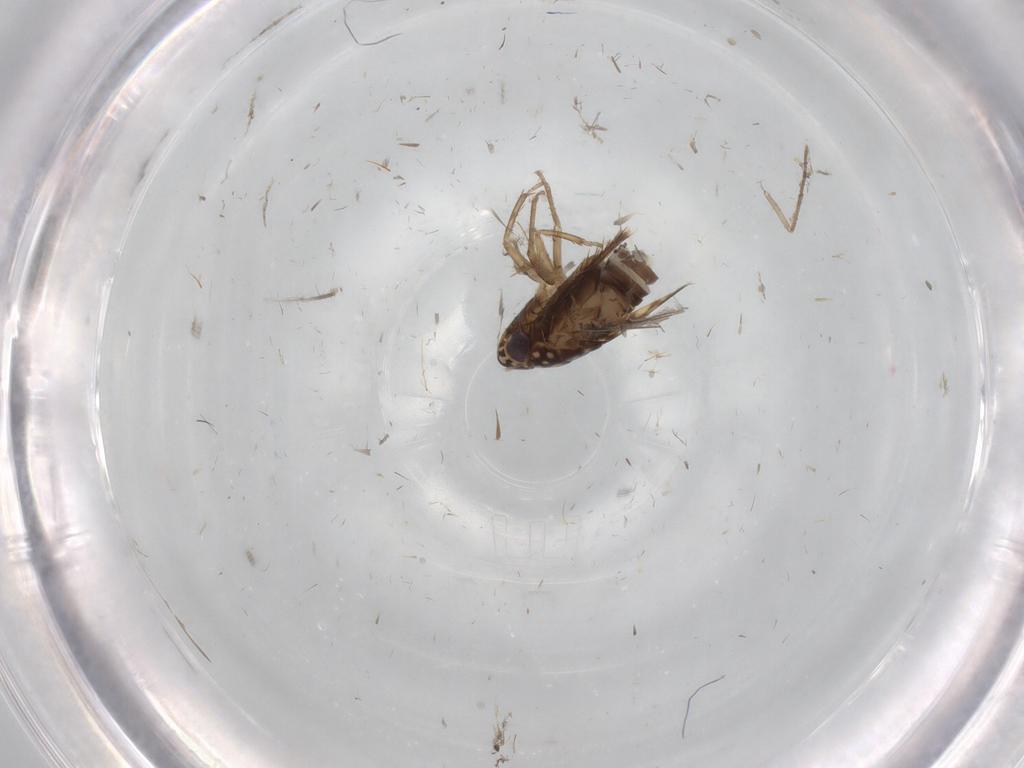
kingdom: Animalia
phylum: Arthropoda
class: Insecta
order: Hemiptera
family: Cicadellidae
